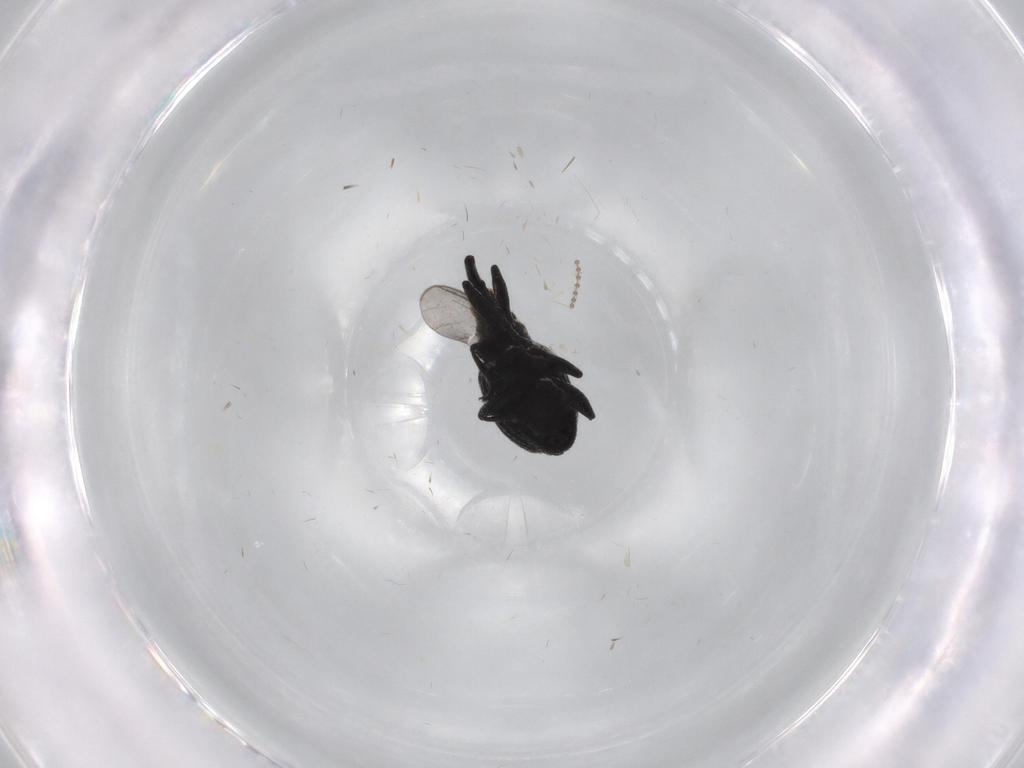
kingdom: Animalia
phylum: Arthropoda
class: Insecta
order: Coleoptera
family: Brentidae
